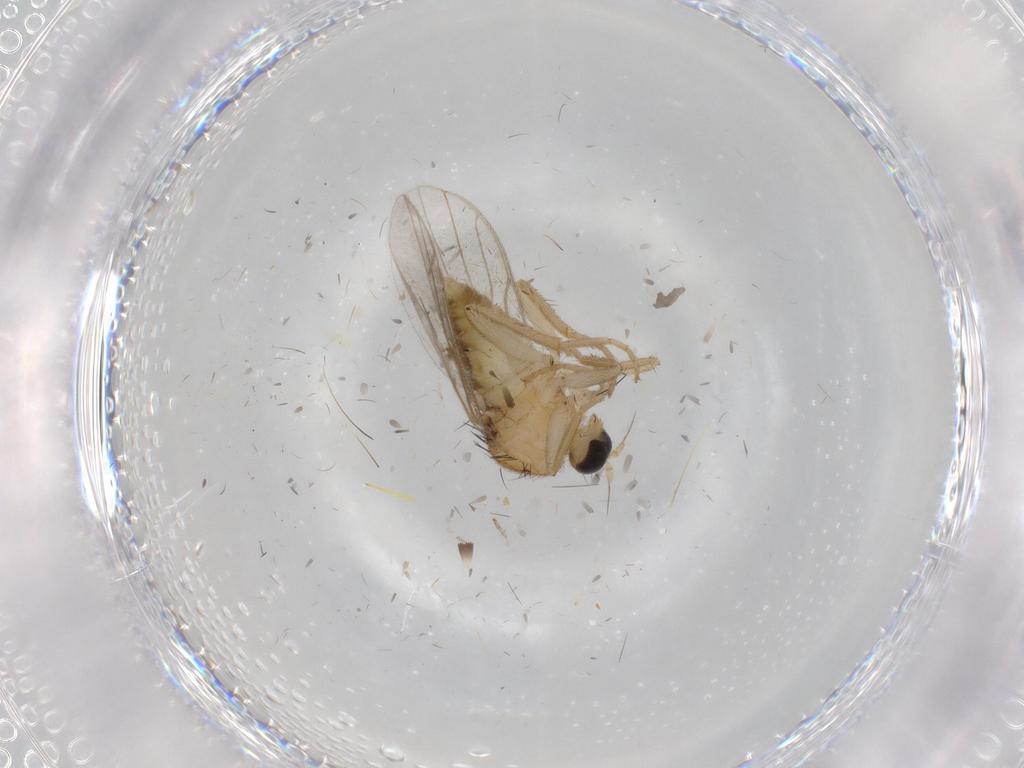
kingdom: Animalia
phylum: Arthropoda
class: Insecta
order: Diptera
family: Hybotidae
